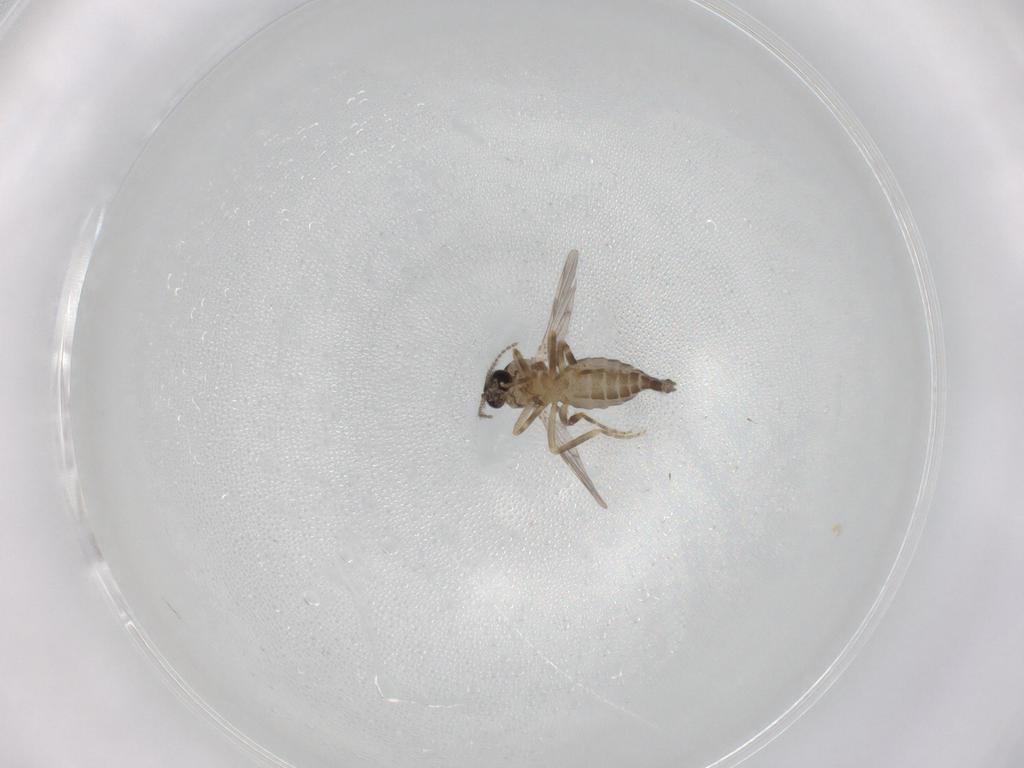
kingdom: Animalia
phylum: Arthropoda
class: Insecta
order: Diptera
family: Ceratopogonidae
